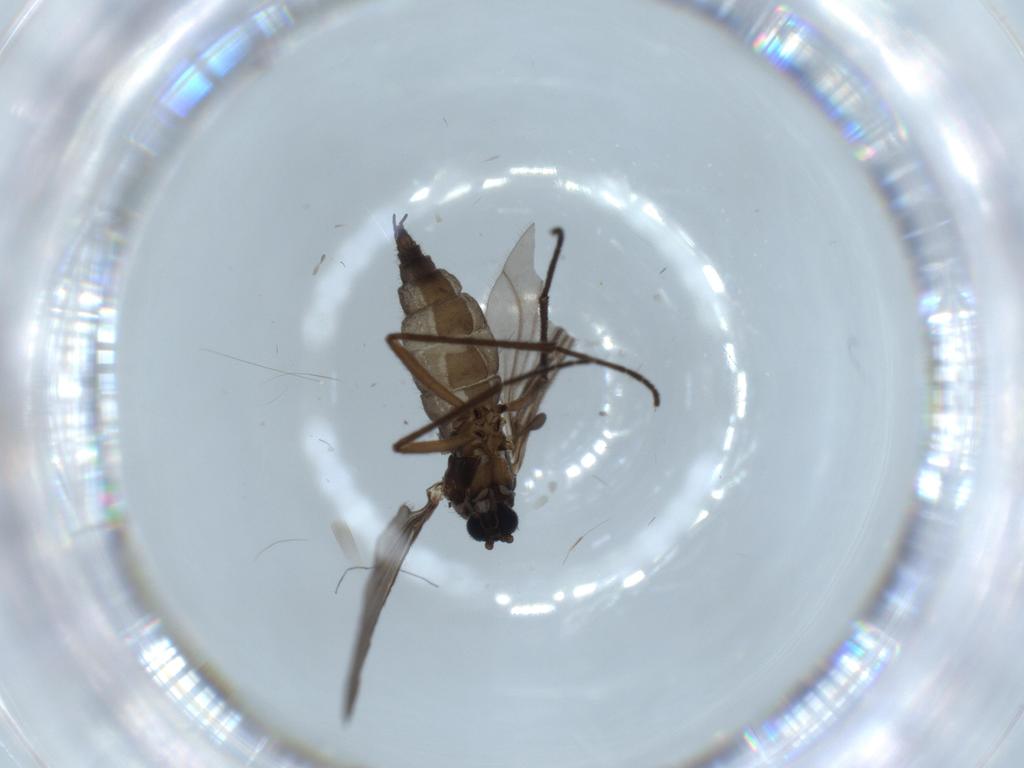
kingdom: Animalia
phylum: Arthropoda
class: Insecta
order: Diptera
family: Sciaridae
